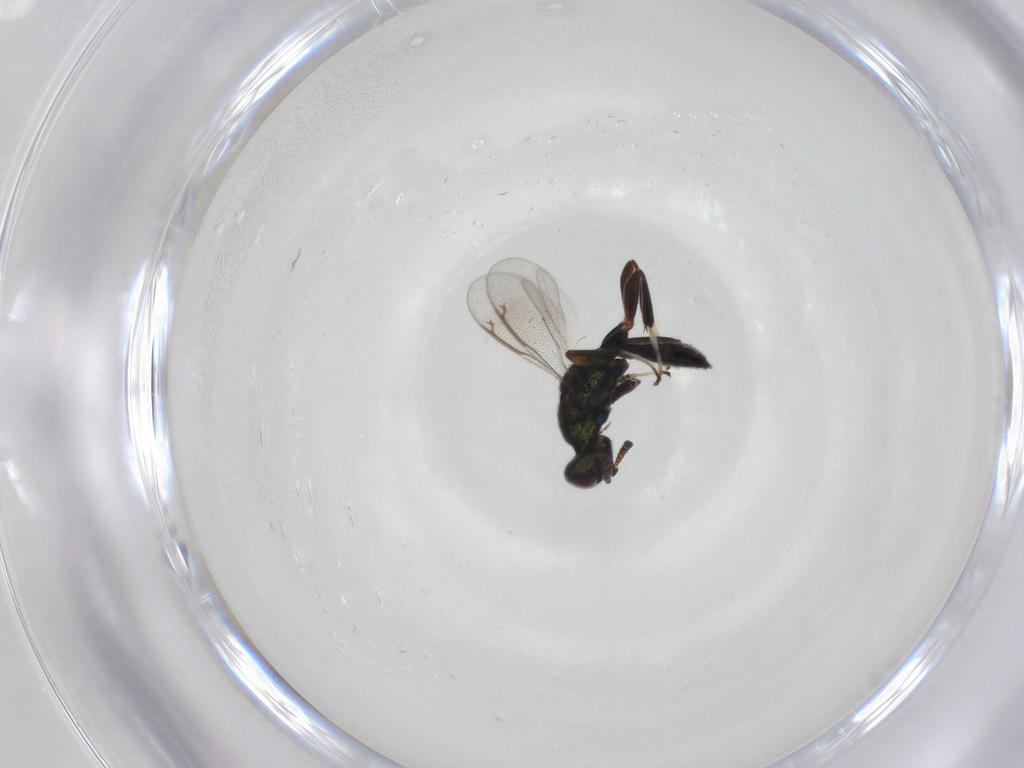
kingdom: Animalia
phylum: Arthropoda
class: Insecta
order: Hymenoptera
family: Cleonyminae
